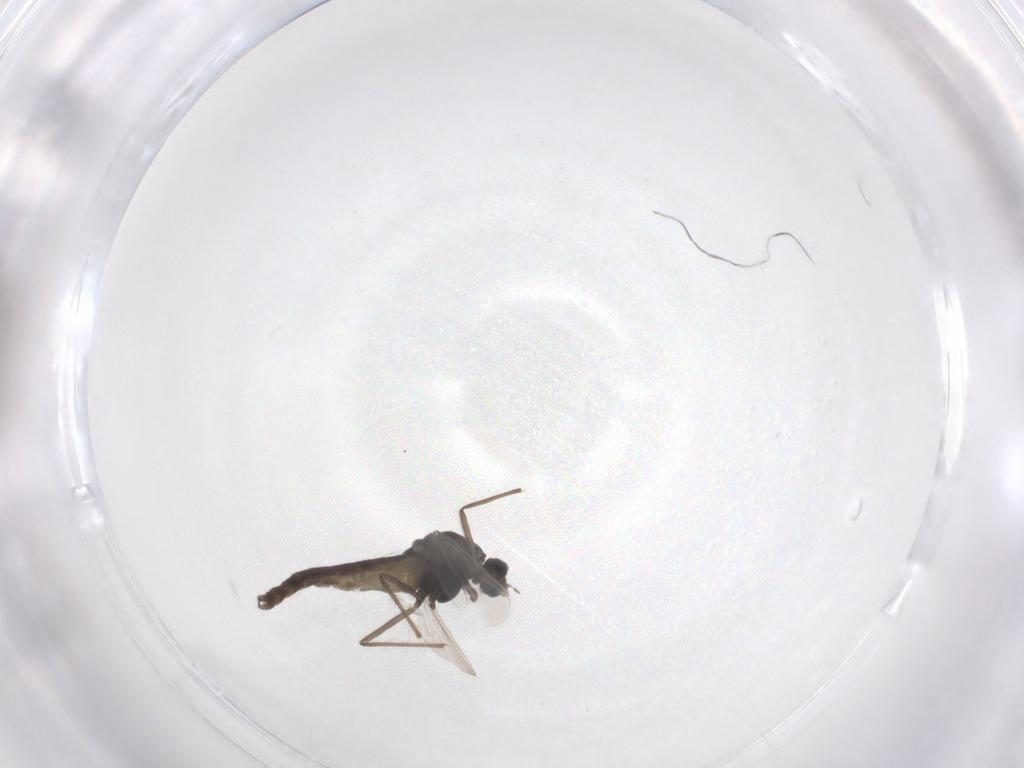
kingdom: Animalia
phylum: Arthropoda
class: Insecta
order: Diptera
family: Chironomidae
